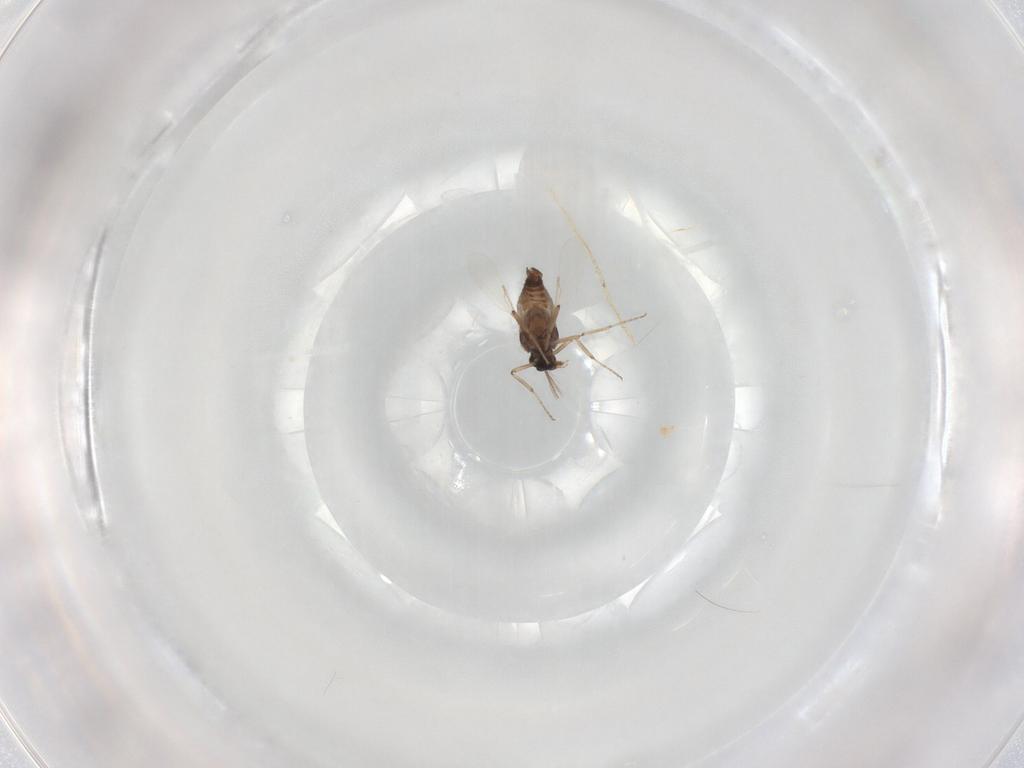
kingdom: Animalia
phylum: Arthropoda
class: Insecta
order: Diptera
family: Ceratopogonidae
